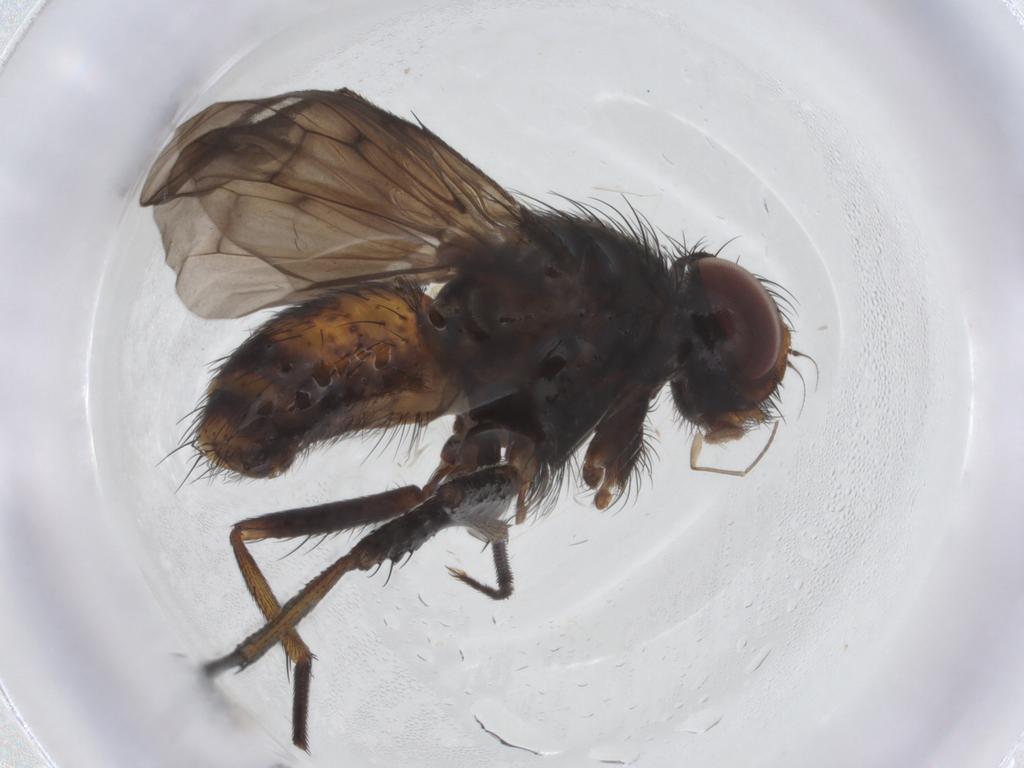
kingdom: Animalia
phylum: Arthropoda
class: Insecta
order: Diptera
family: Muscidae
